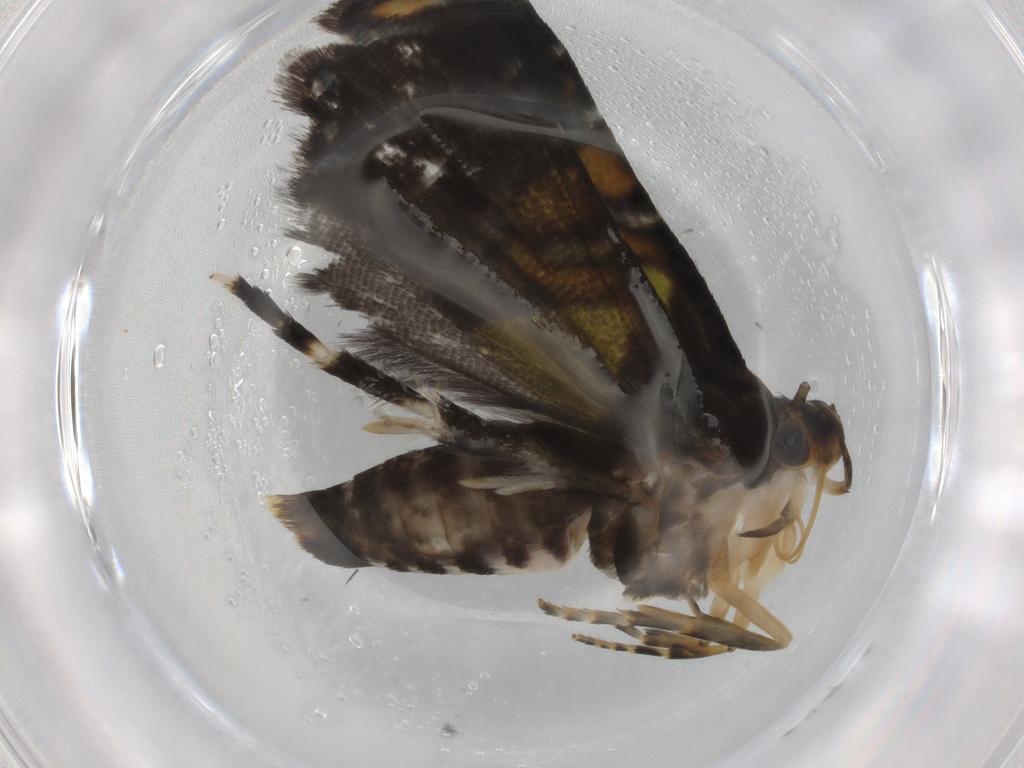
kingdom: Animalia
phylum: Arthropoda
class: Insecta
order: Lepidoptera
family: Glyphipterigidae
